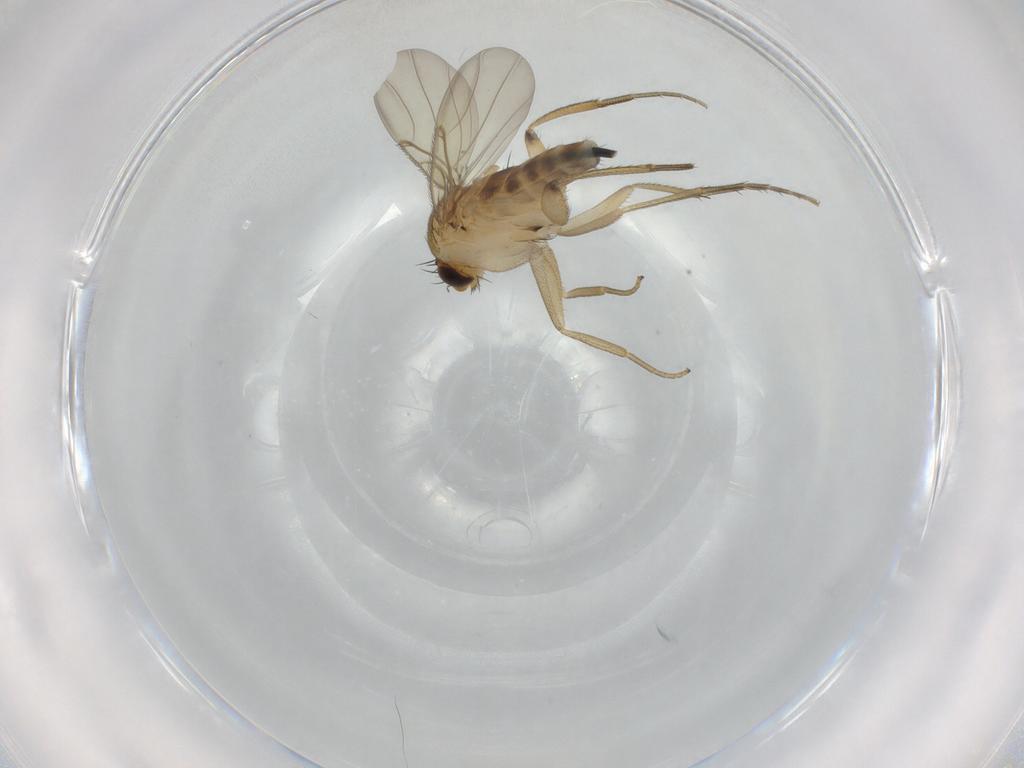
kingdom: Animalia
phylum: Arthropoda
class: Insecta
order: Diptera
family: Phoridae
